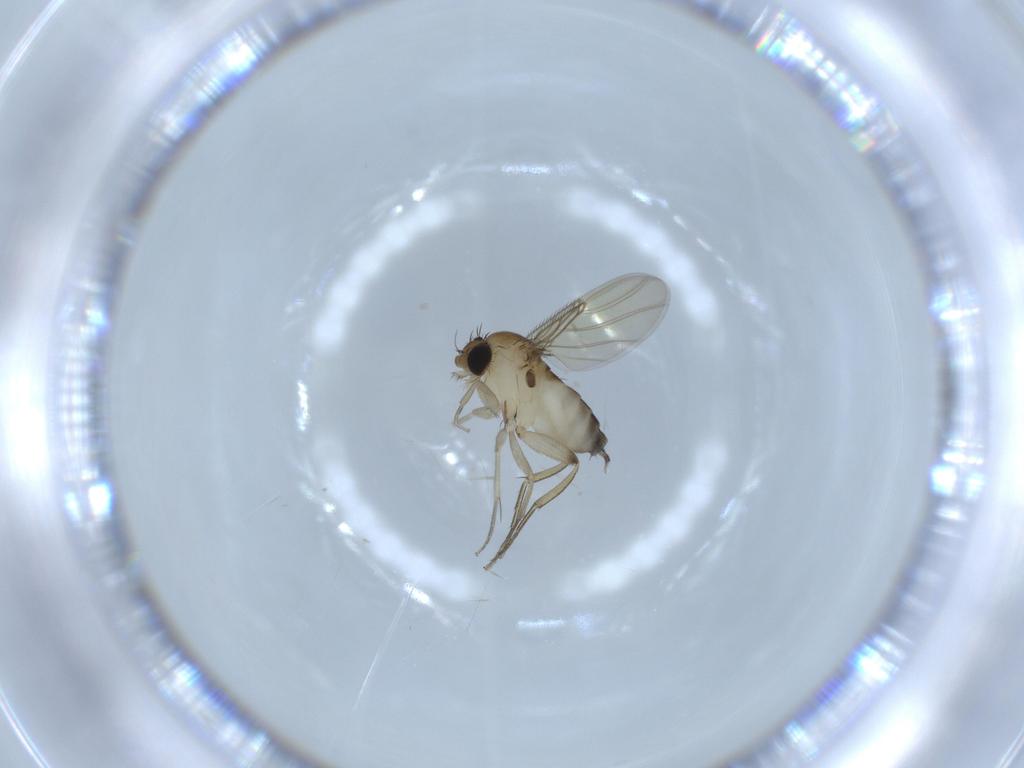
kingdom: Animalia
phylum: Arthropoda
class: Insecta
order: Diptera
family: Phoridae
